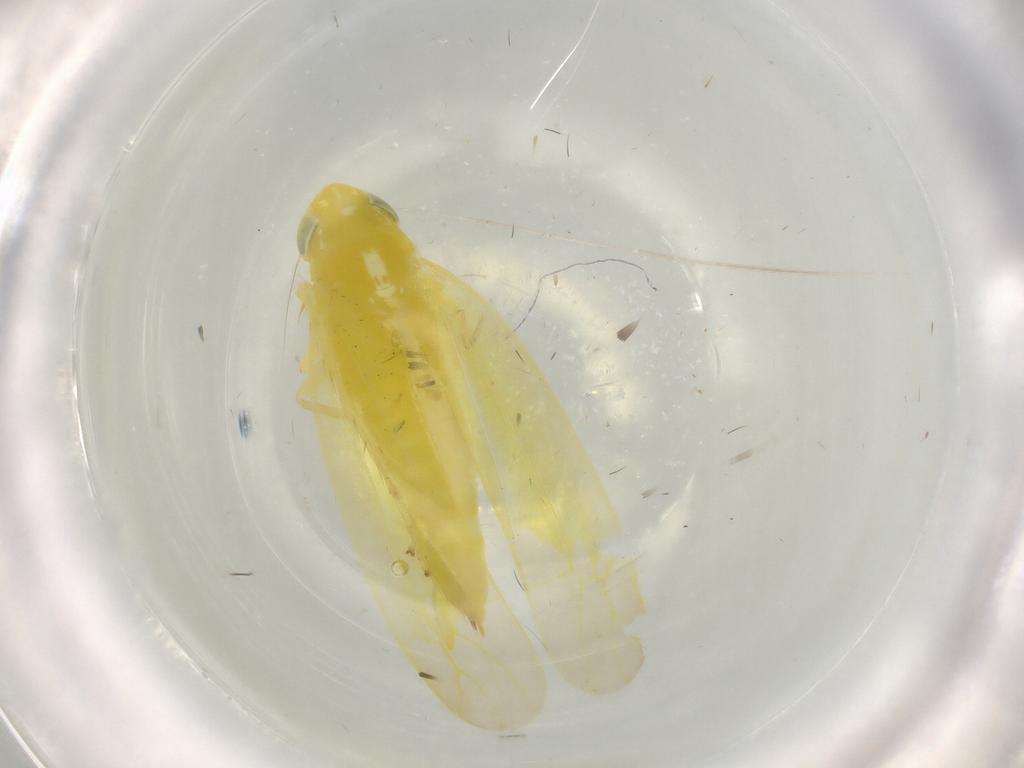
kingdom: Animalia
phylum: Arthropoda
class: Insecta
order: Hemiptera
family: Cicadellidae
